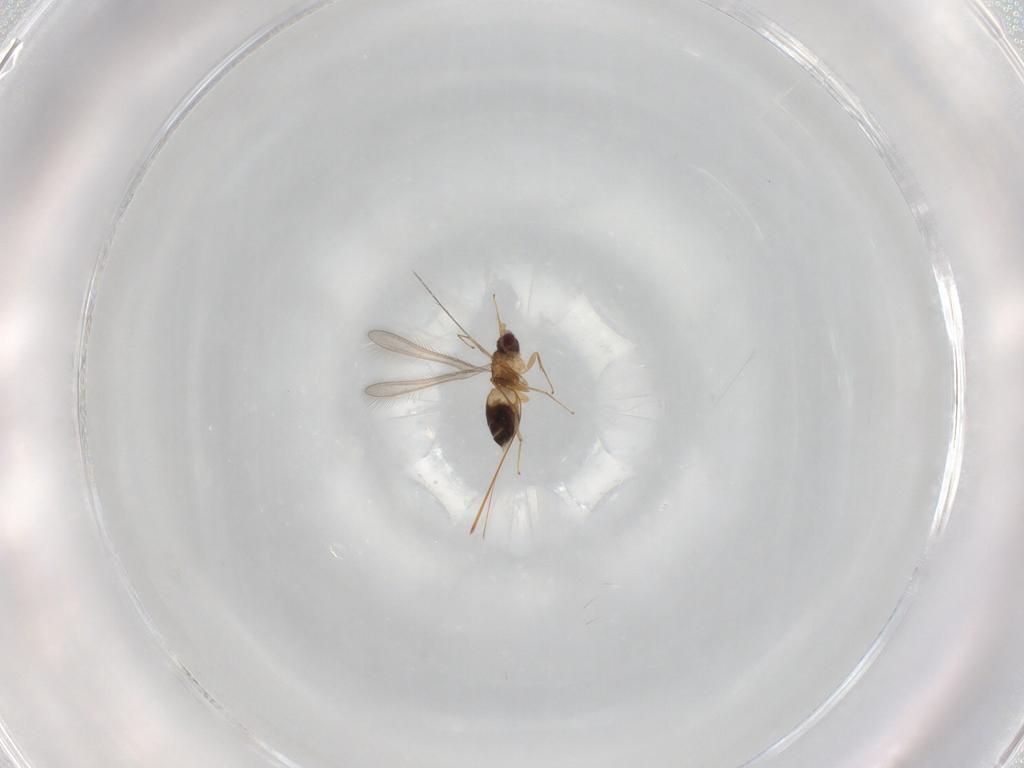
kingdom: Animalia
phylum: Arthropoda
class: Insecta
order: Hymenoptera
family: Mymaridae
